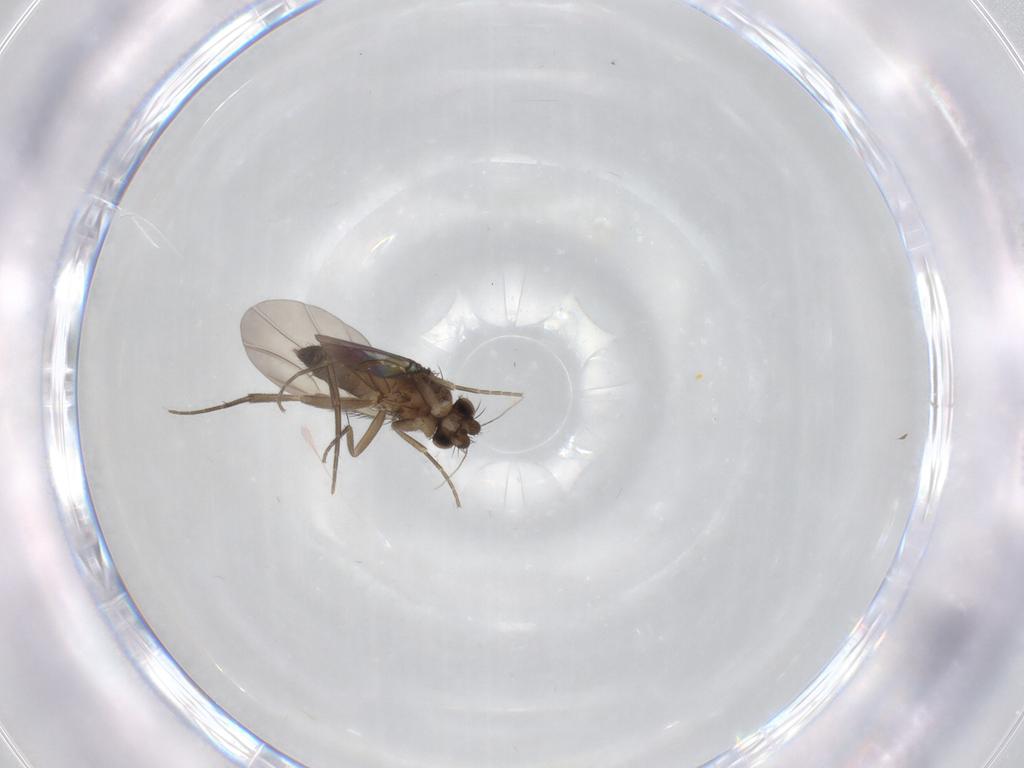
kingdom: Animalia
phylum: Arthropoda
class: Insecta
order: Diptera
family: Phoridae
